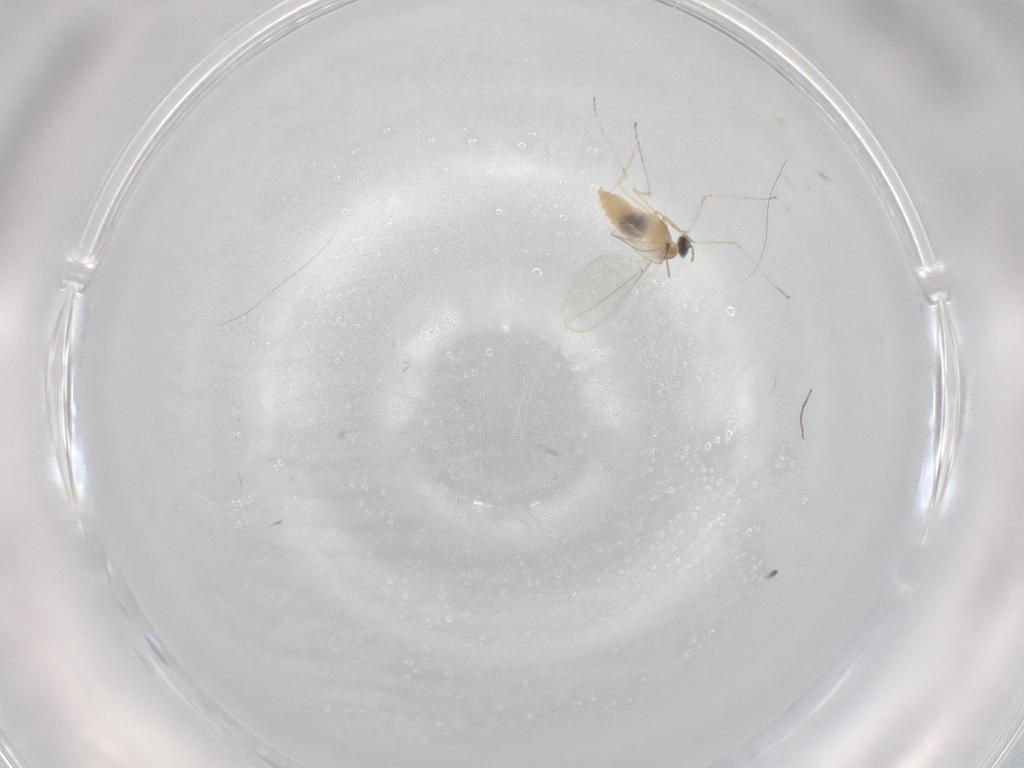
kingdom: Animalia
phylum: Arthropoda
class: Insecta
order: Diptera
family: Cecidomyiidae
